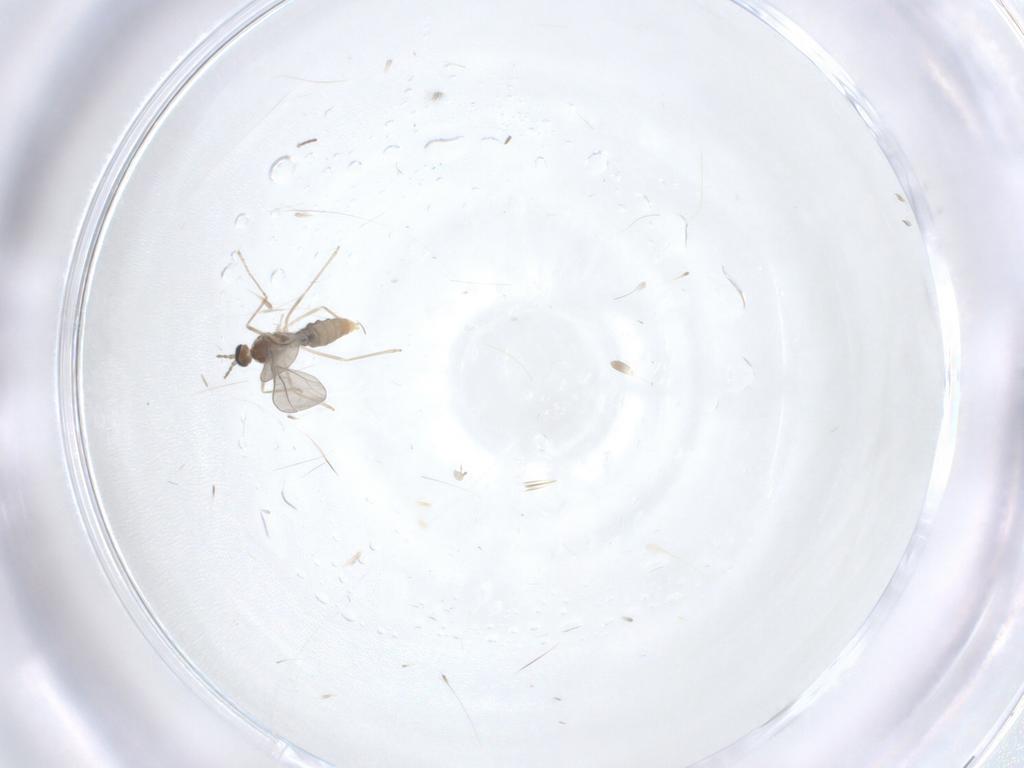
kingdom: Animalia
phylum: Arthropoda
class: Insecta
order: Diptera
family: Cecidomyiidae
